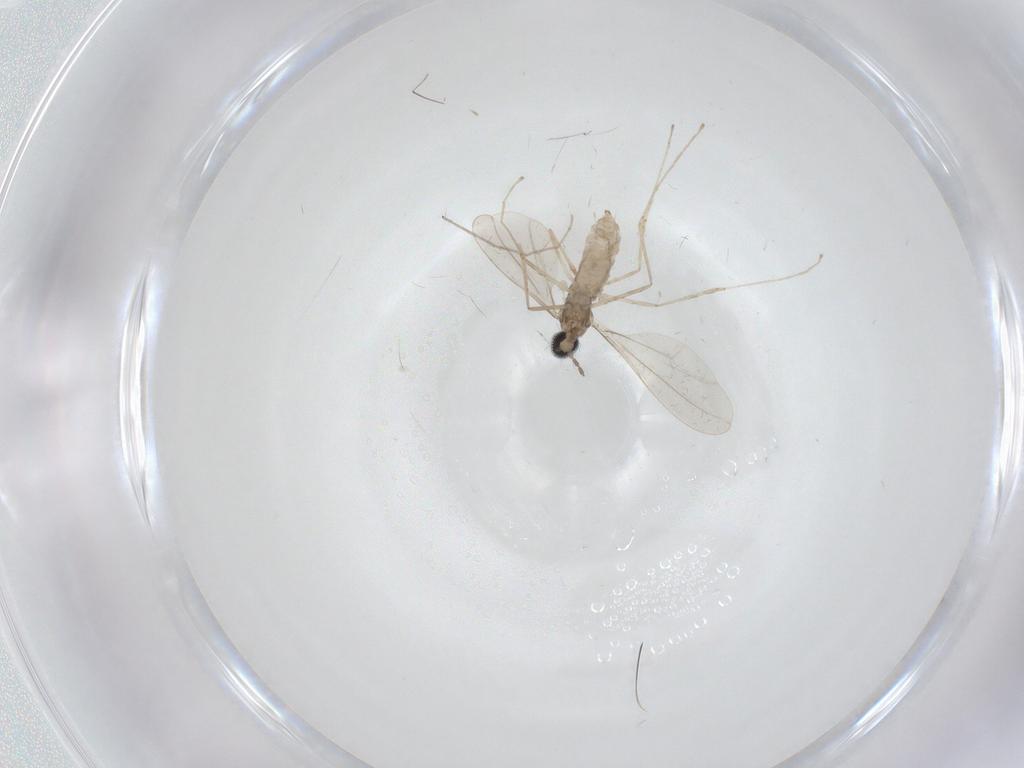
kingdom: Animalia
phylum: Arthropoda
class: Insecta
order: Diptera
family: Cecidomyiidae
